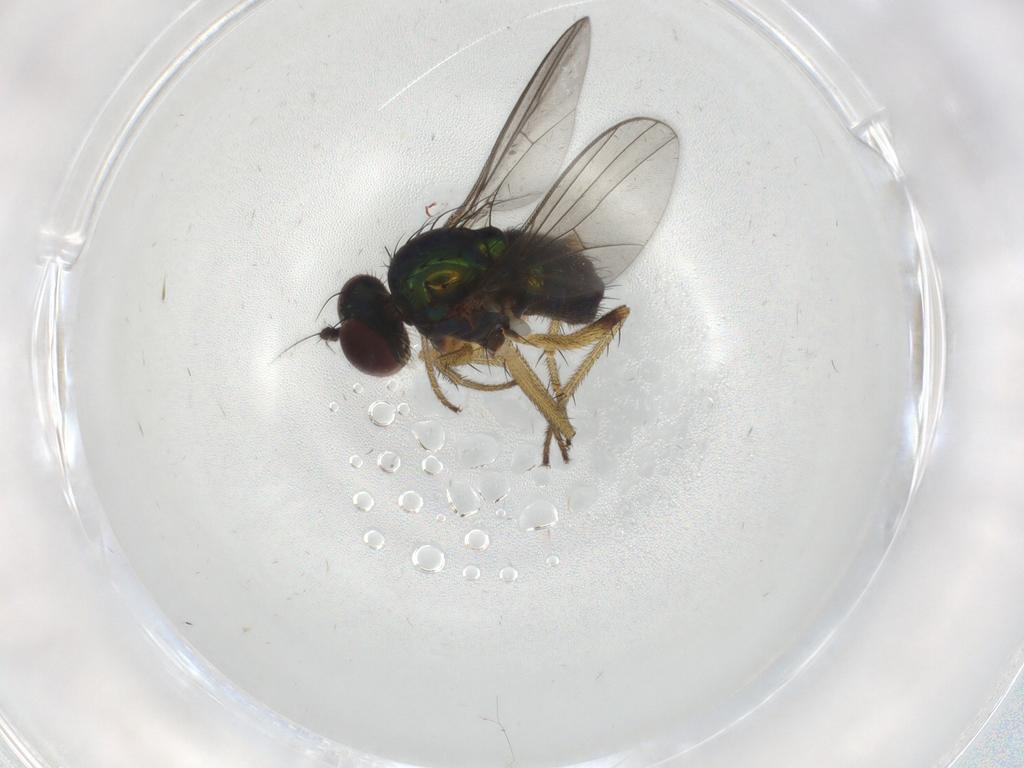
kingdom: Animalia
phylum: Arthropoda
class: Insecta
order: Diptera
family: Dolichopodidae
